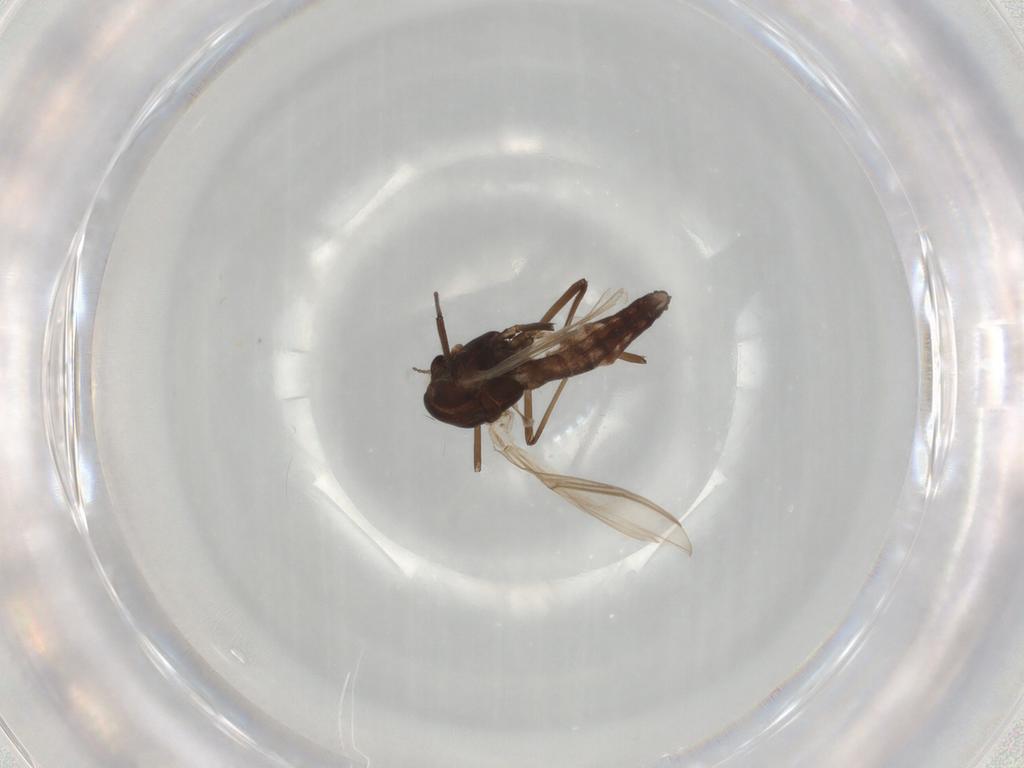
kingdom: Animalia
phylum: Arthropoda
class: Insecta
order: Diptera
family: Chironomidae
